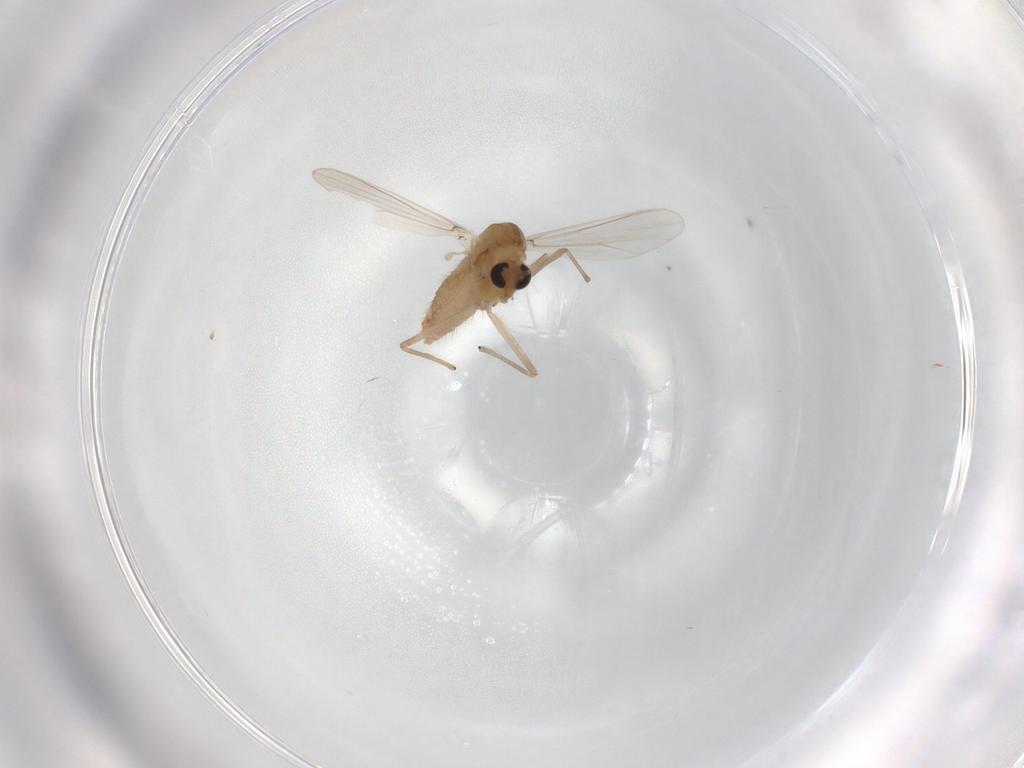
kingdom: Animalia
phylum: Arthropoda
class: Insecta
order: Diptera
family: Chironomidae
